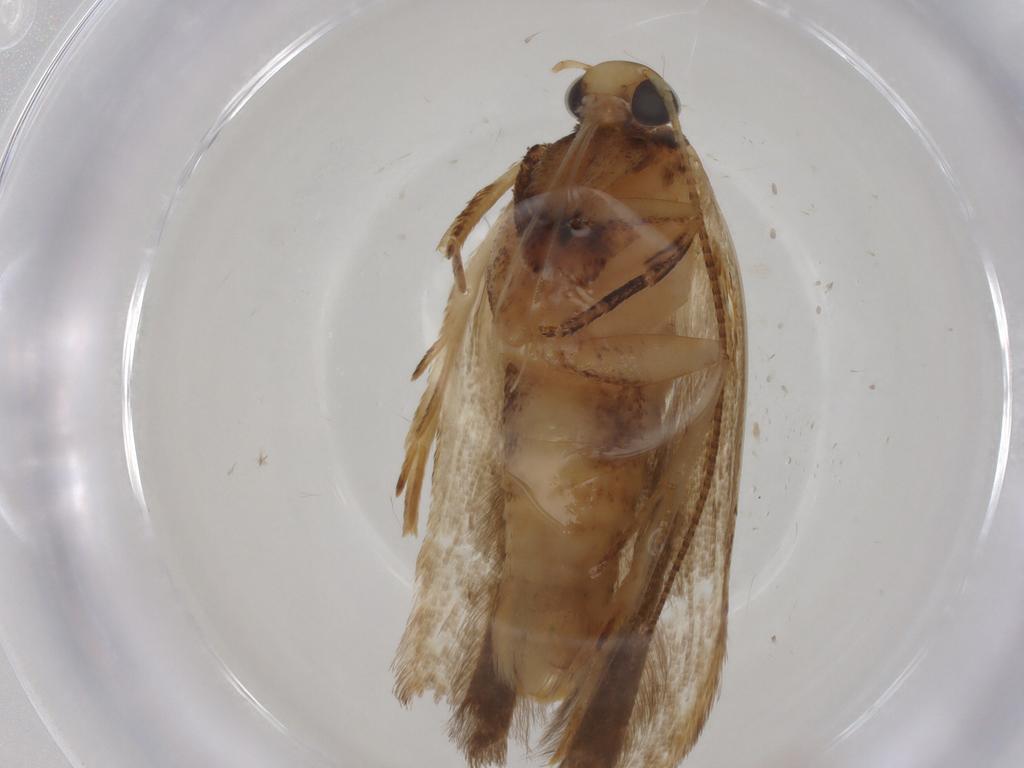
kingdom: Animalia
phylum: Arthropoda
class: Insecta
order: Lepidoptera
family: Gelechiidae
